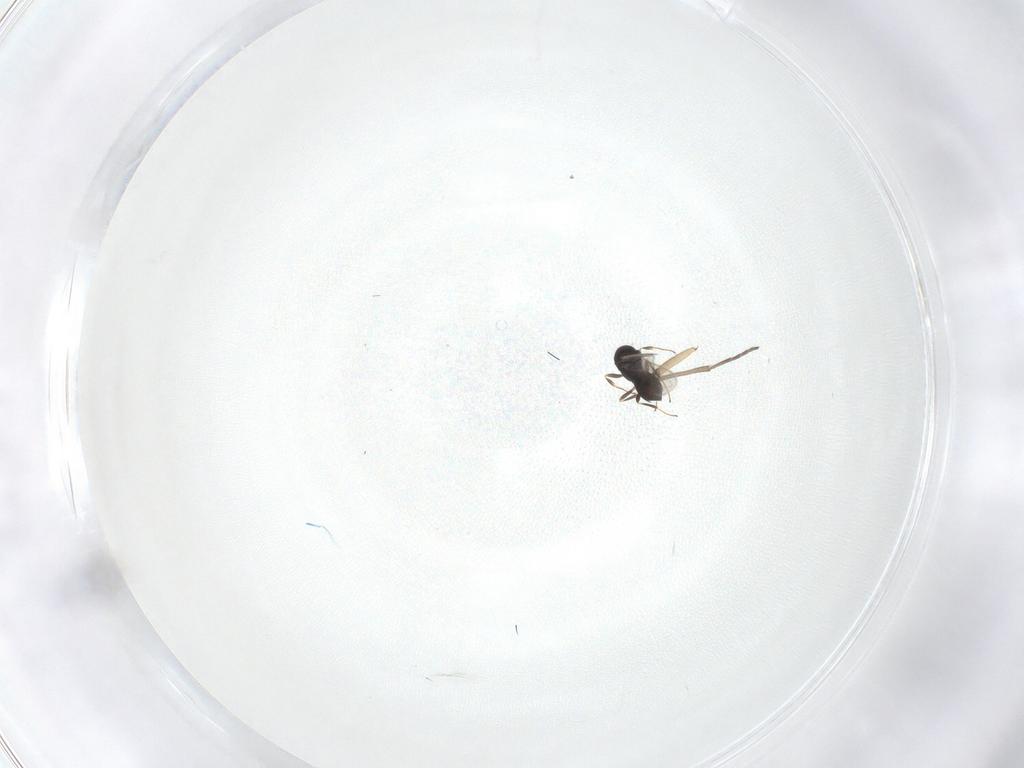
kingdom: Animalia
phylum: Arthropoda
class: Insecta
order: Hymenoptera
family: Scelionidae
